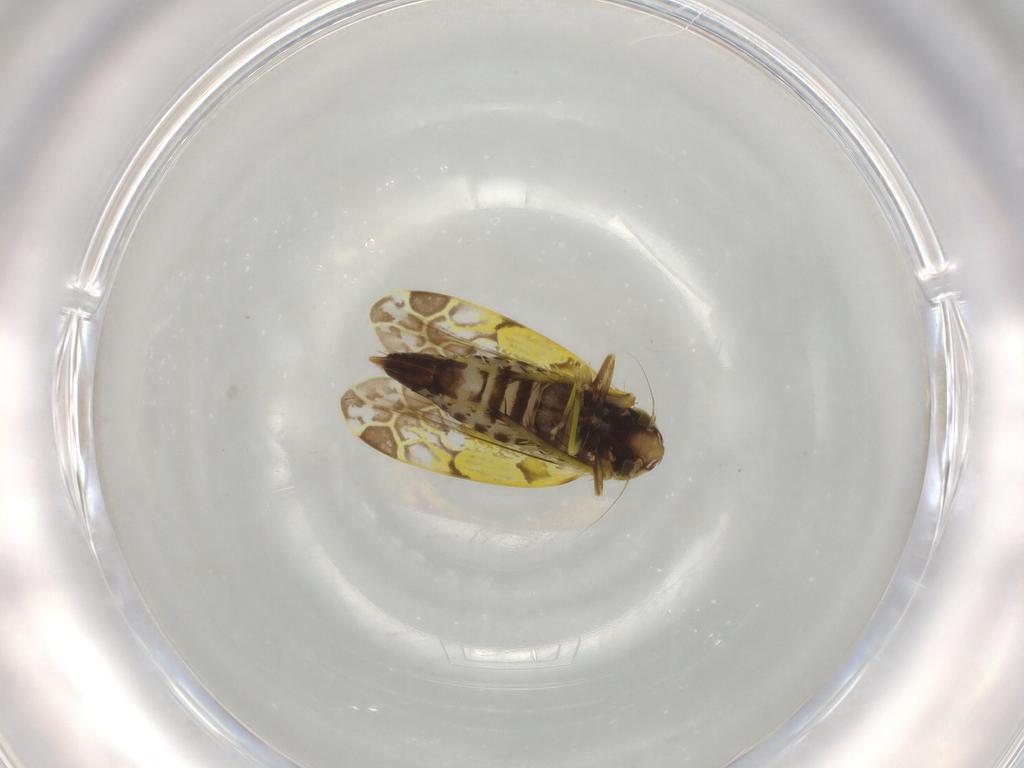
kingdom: Animalia
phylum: Arthropoda
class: Insecta
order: Hemiptera
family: Cicadellidae
